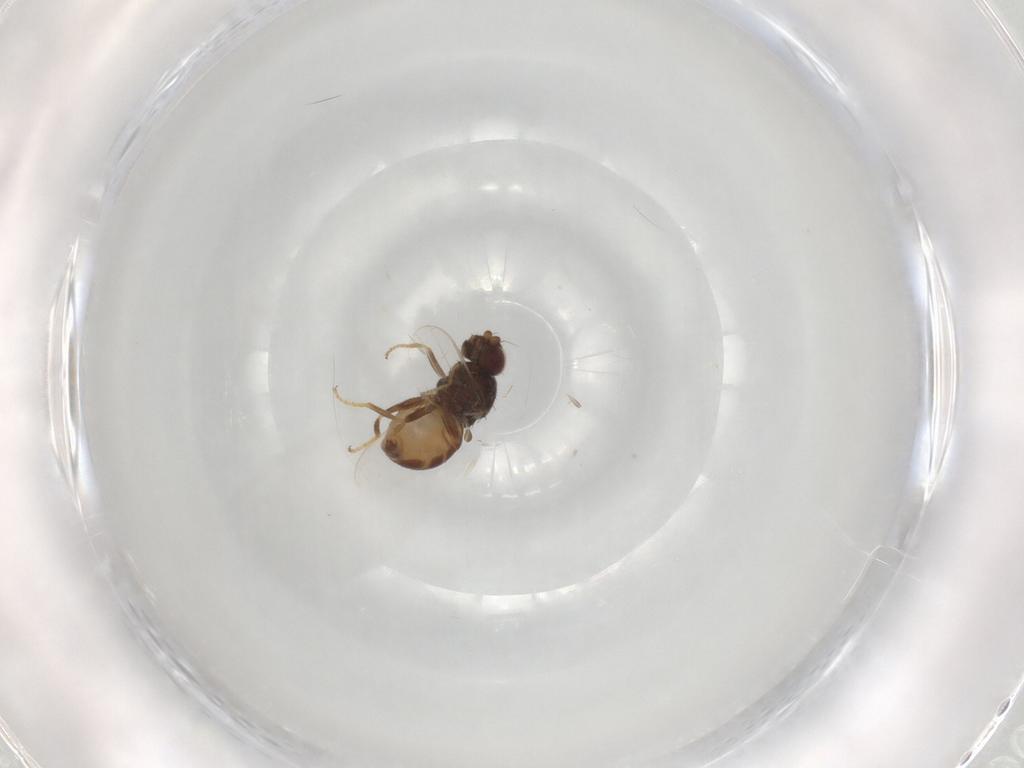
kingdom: Animalia
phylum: Arthropoda
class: Insecta
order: Diptera
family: Chloropidae
